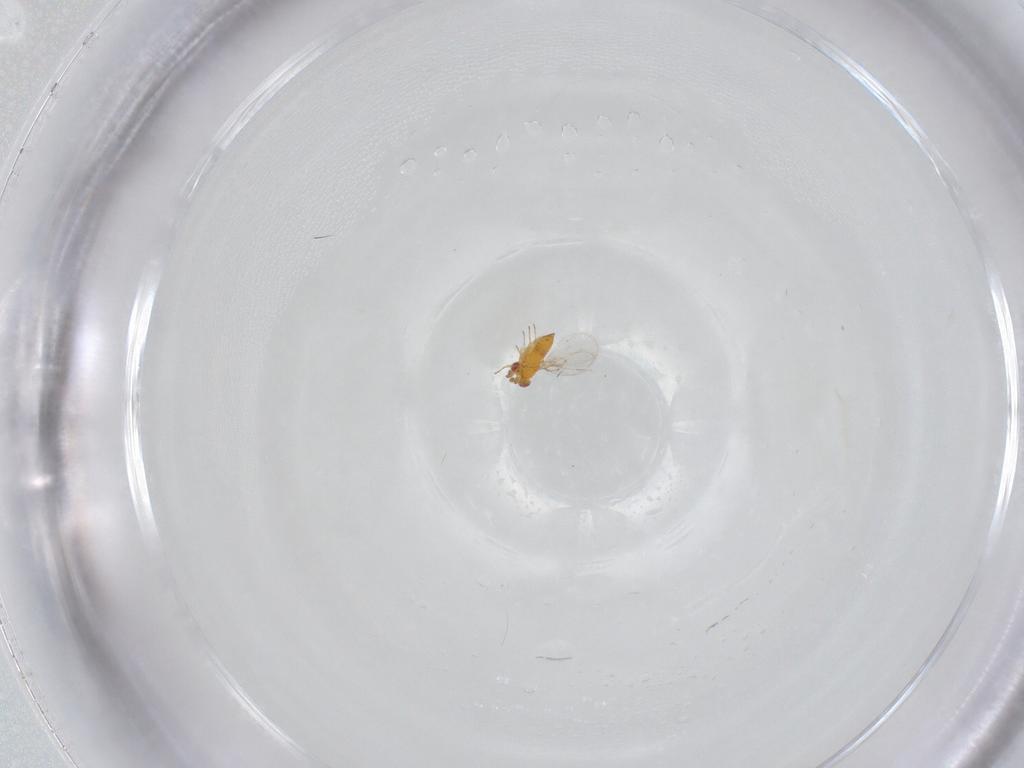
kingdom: Animalia
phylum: Arthropoda
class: Insecta
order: Hymenoptera
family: Trichogrammatidae
